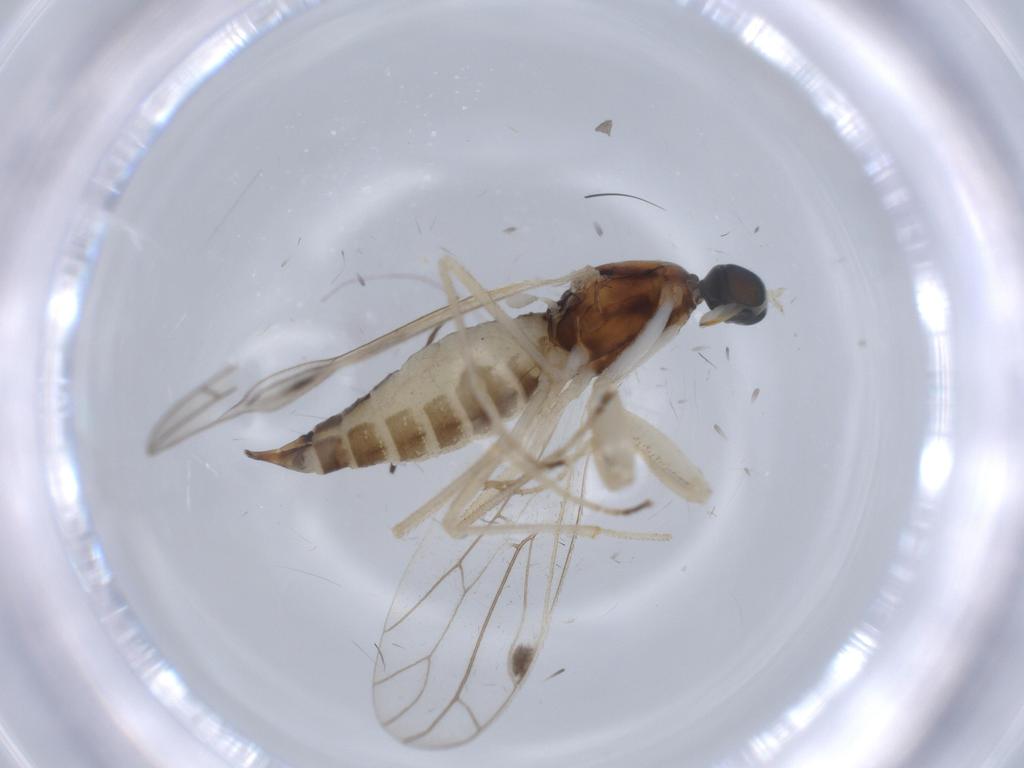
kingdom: Animalia
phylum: Arthropoda
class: Insecta
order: Diptera
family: Empididae
